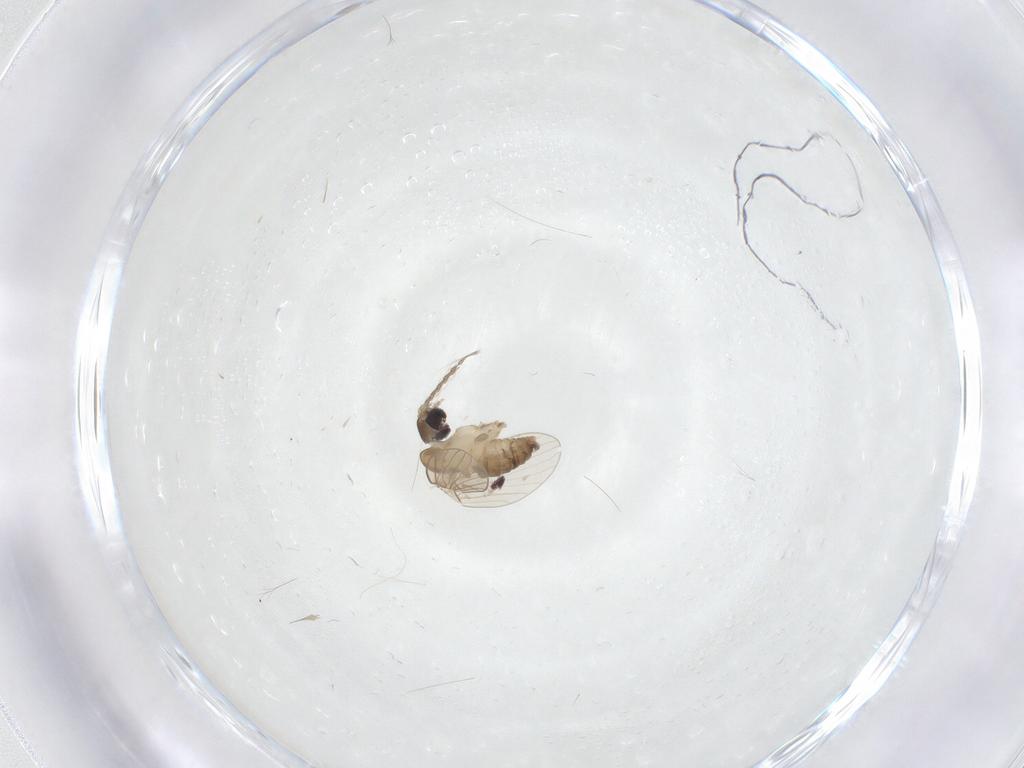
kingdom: Animalia
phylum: Arthropoda
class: Insecta
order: Diptera
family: Psychodidae
